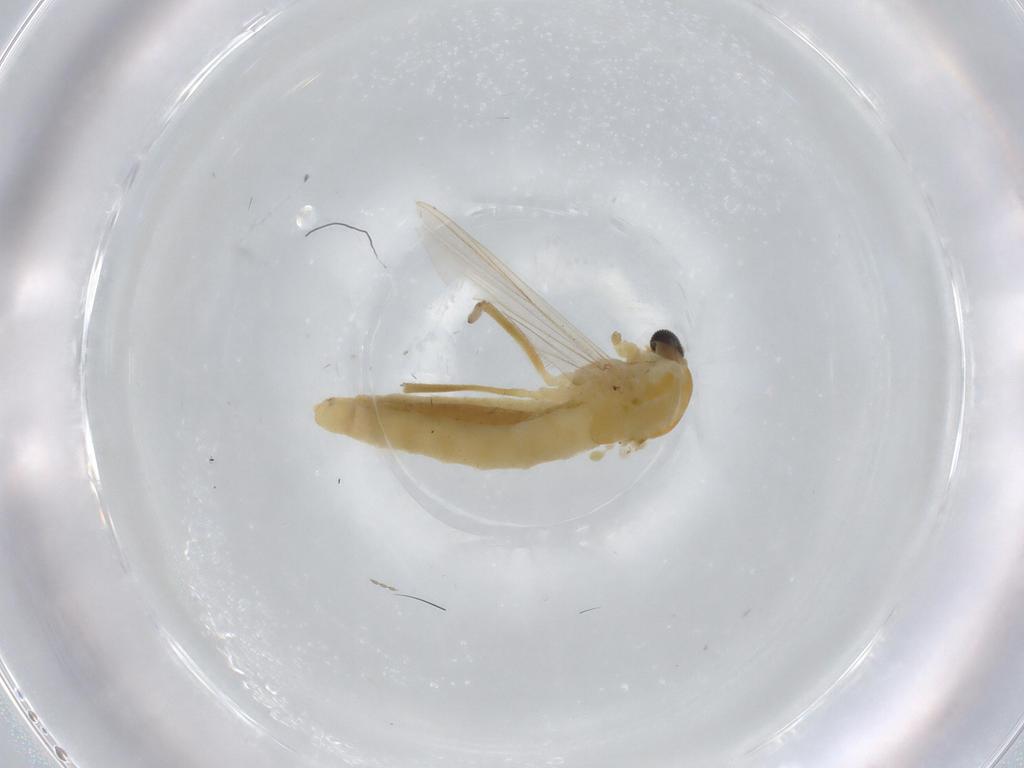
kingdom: Animalia
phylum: Arthropoda
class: Insecta
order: Diptera
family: Chironomidae
